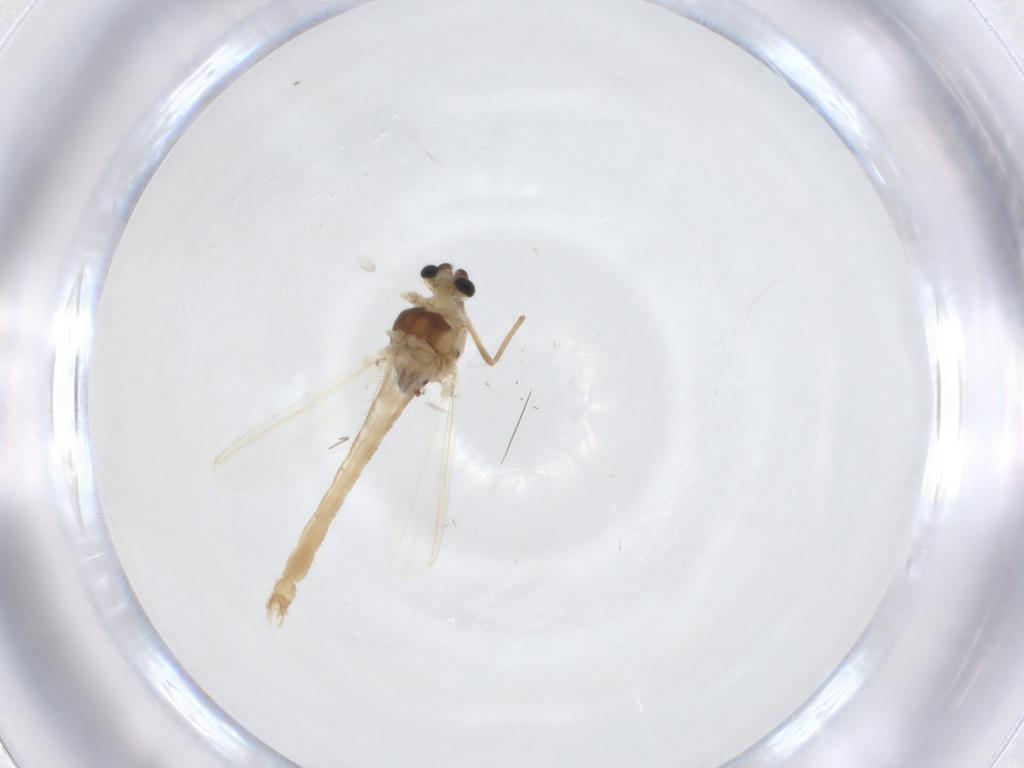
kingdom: Animalia
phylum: Arthropoda
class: Insecta
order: Diptera
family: Chironomidae
